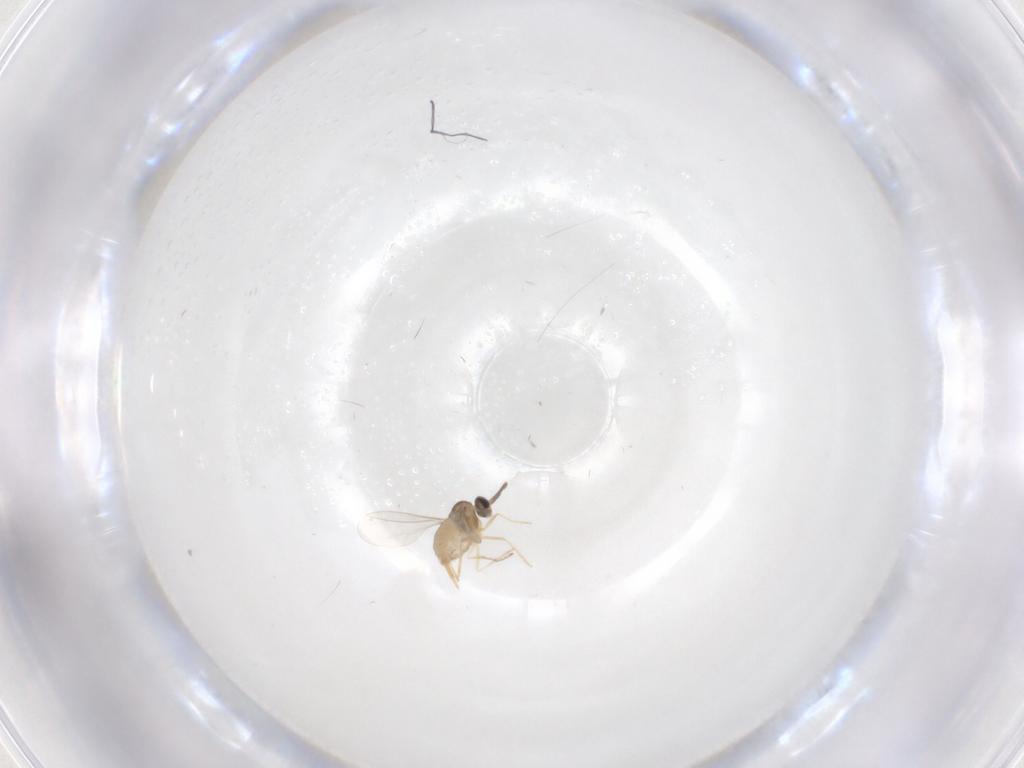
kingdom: Animalia
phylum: Arthropoda
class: Insecta
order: Diptera
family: Cecidomyiidae
